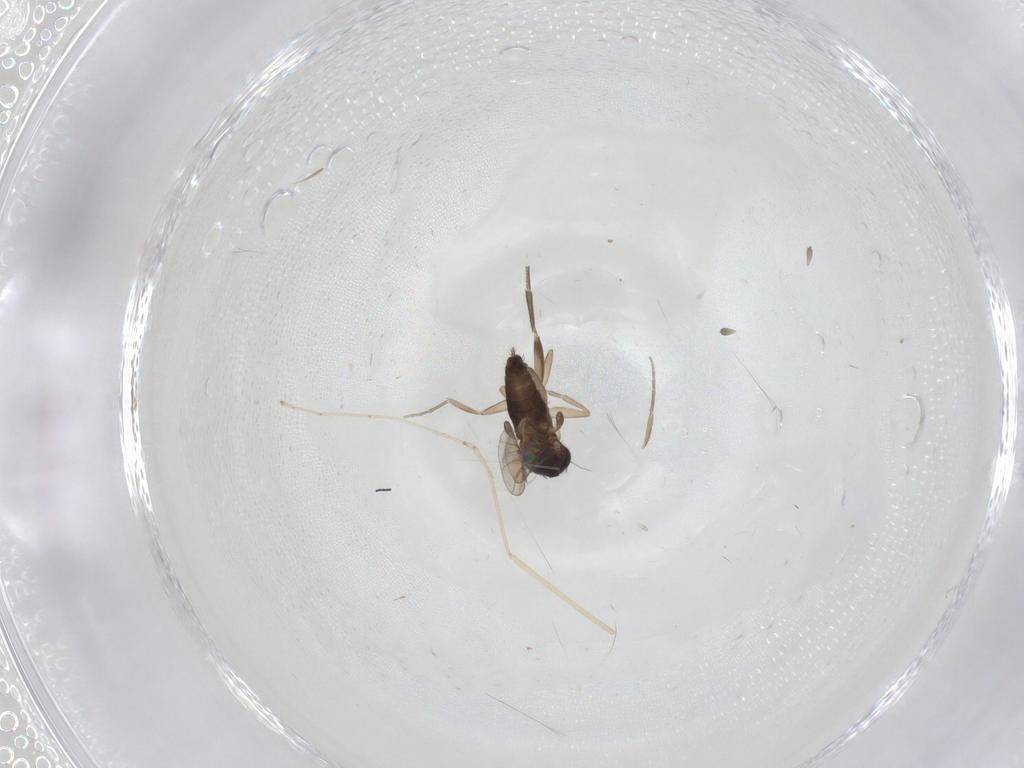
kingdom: Animalia
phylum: Arthropoda
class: Insecta
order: Diptera
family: Cecidomyiidae
